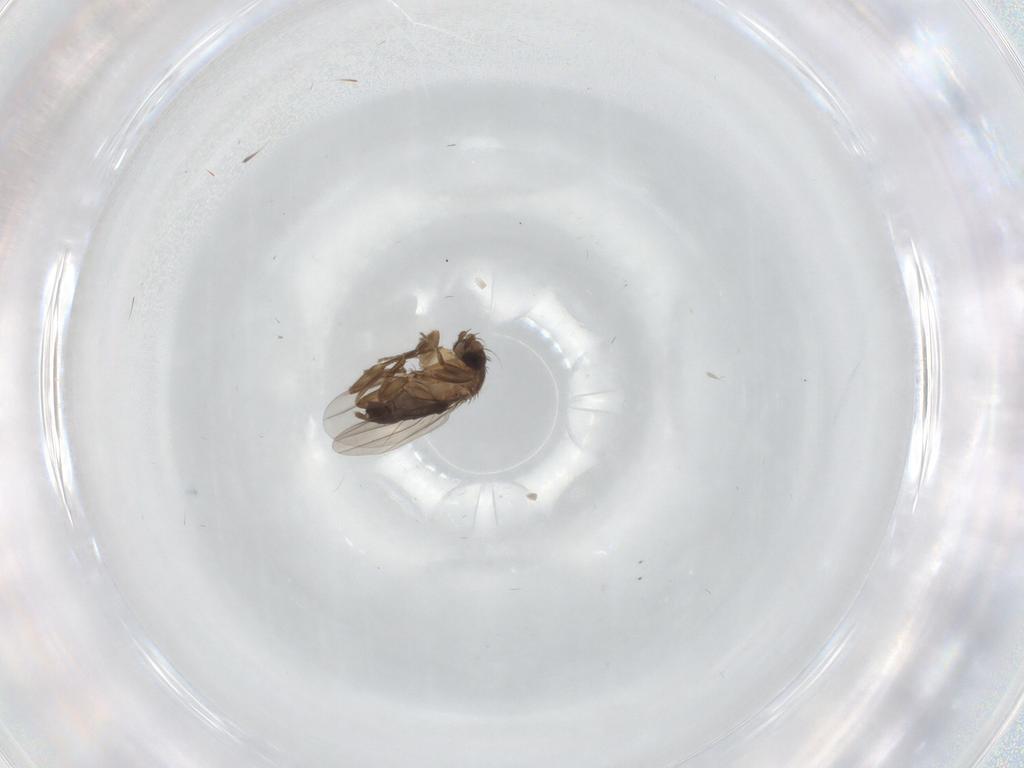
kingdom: Animalia
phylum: Arthropoda
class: Insecta
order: Diptera
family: Phoridae
